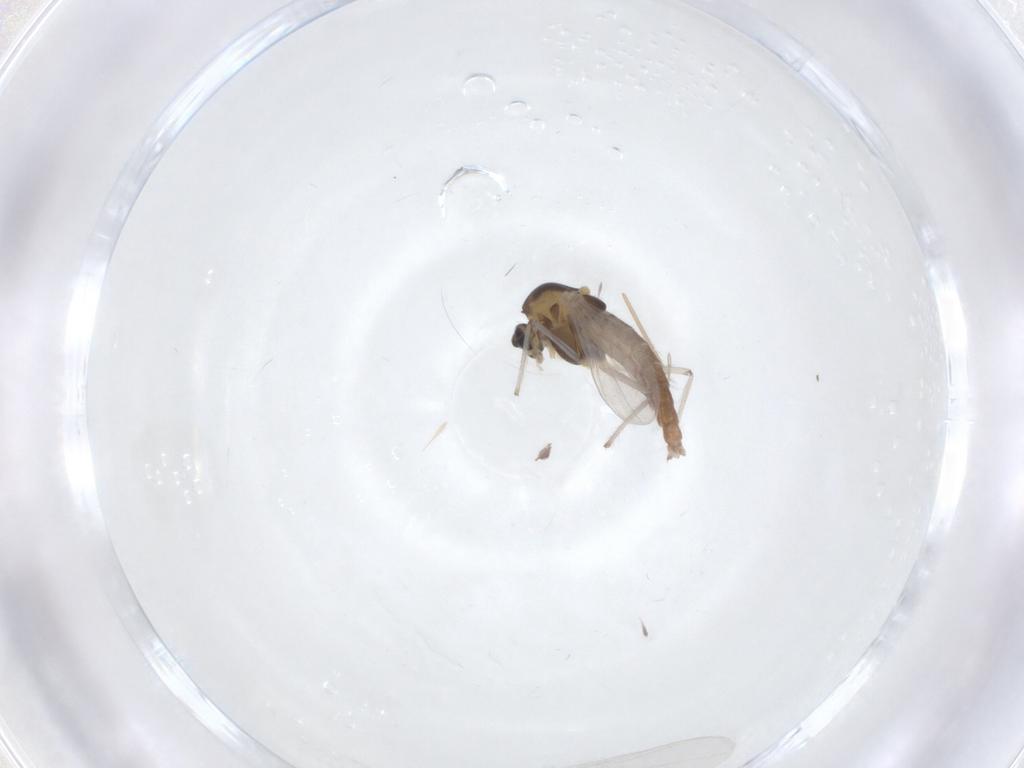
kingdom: Animalia
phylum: Arthropoda
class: Insecta
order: Diptera
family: Chironomidae
